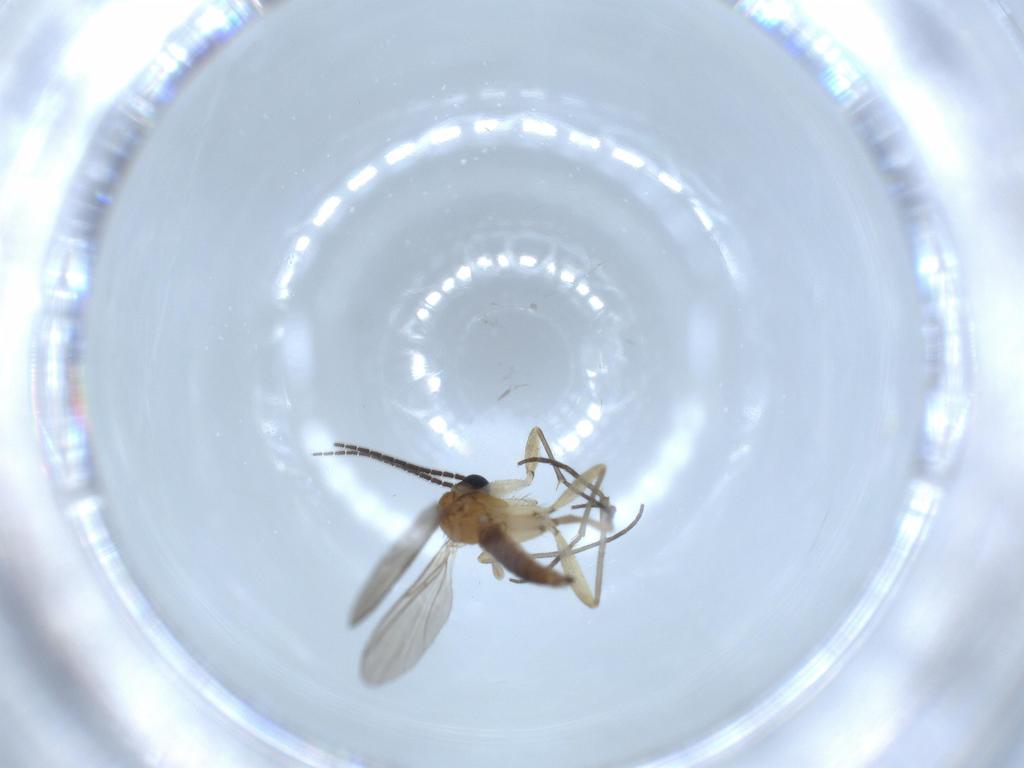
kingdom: Animalia
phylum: Arthropoda
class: Insecta
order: Diptera
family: Sciaridae
